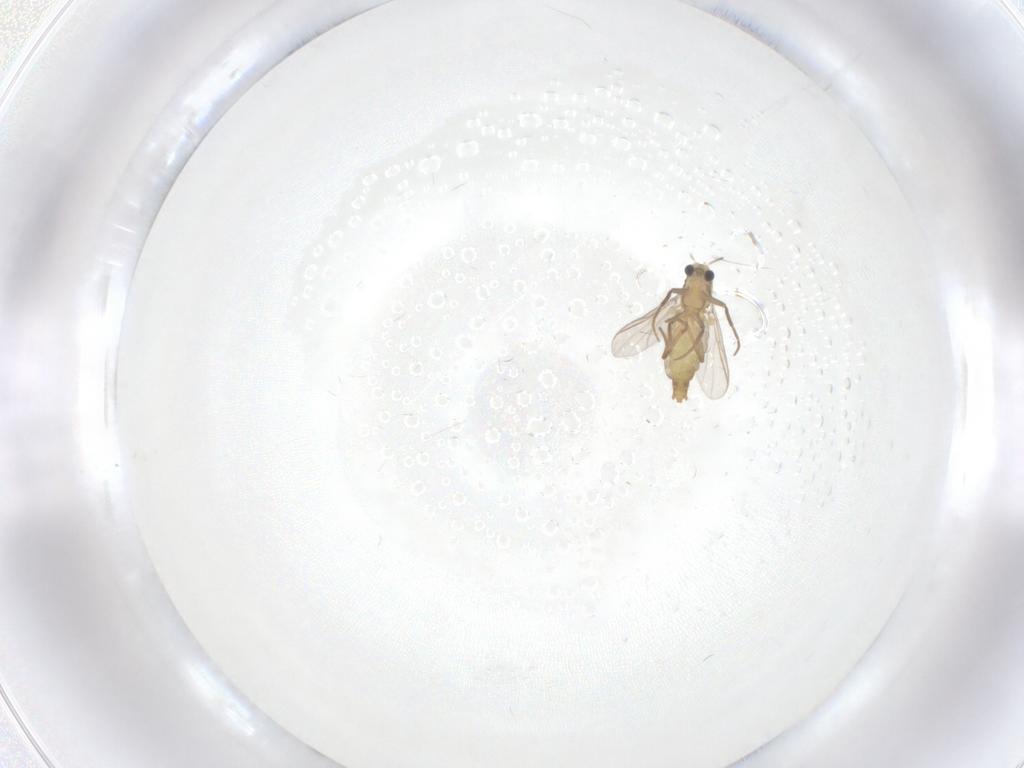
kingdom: Animalia
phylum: Arthropoda
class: Insecta
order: Diptera
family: Chironomidae
